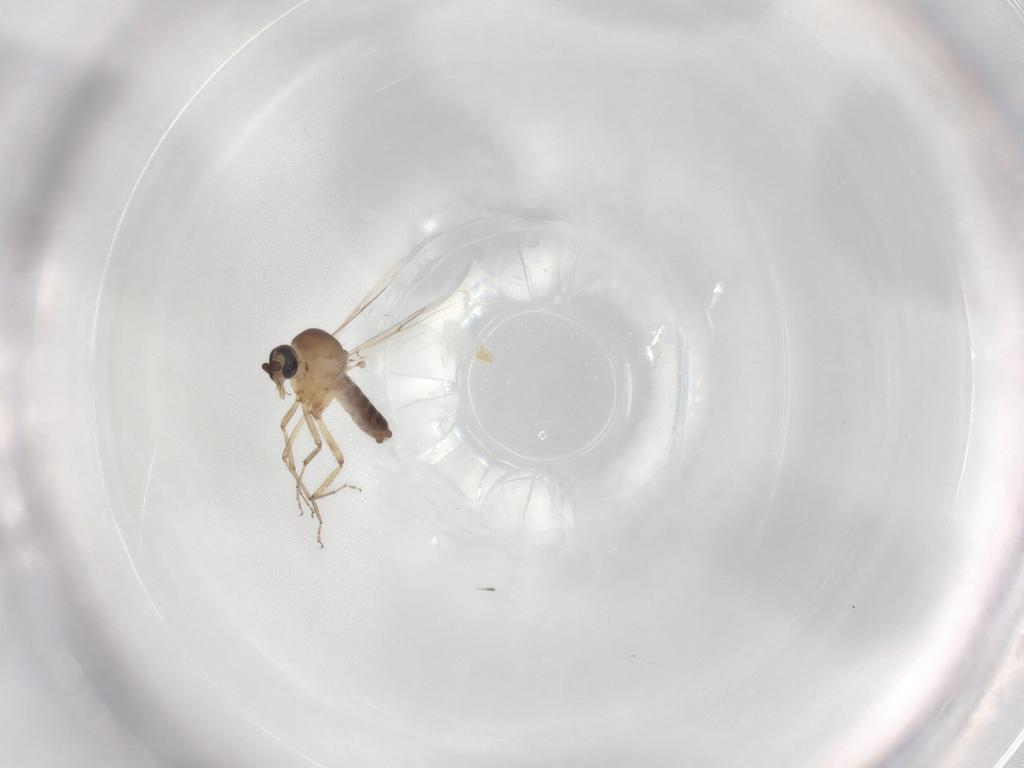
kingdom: Animalia
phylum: Arthropoda
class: Insecta
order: Diptera
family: Ceratopogonidae
